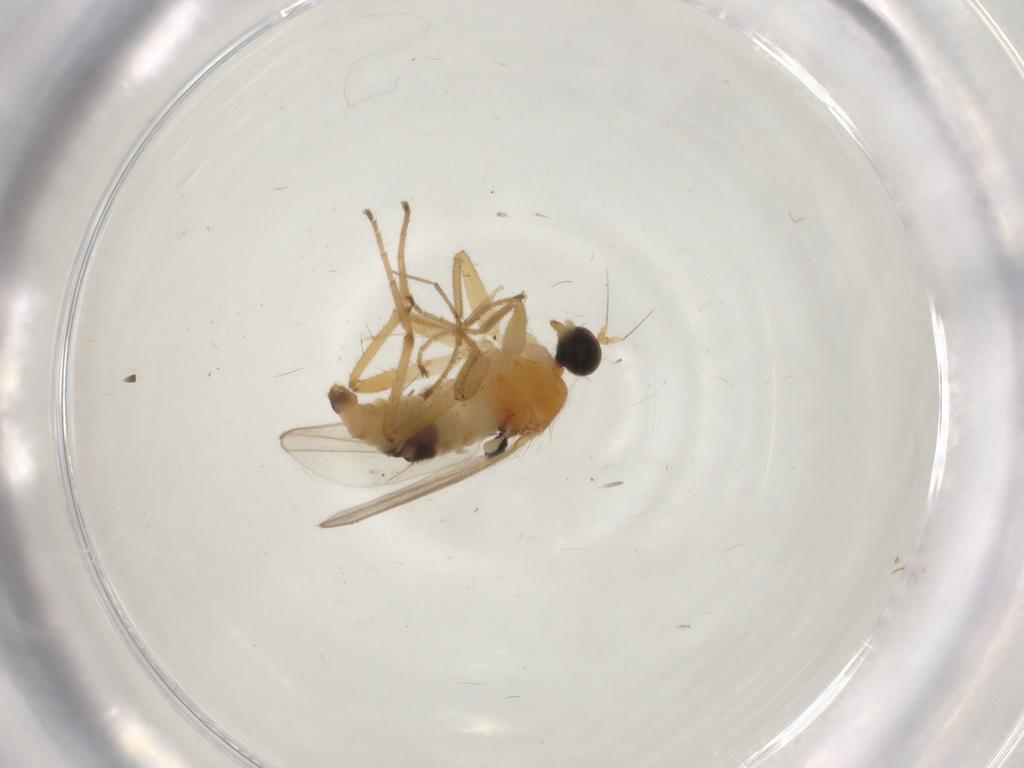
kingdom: Animalia
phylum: Arthropoda
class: Insecta
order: Diptera
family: Hybotidae
